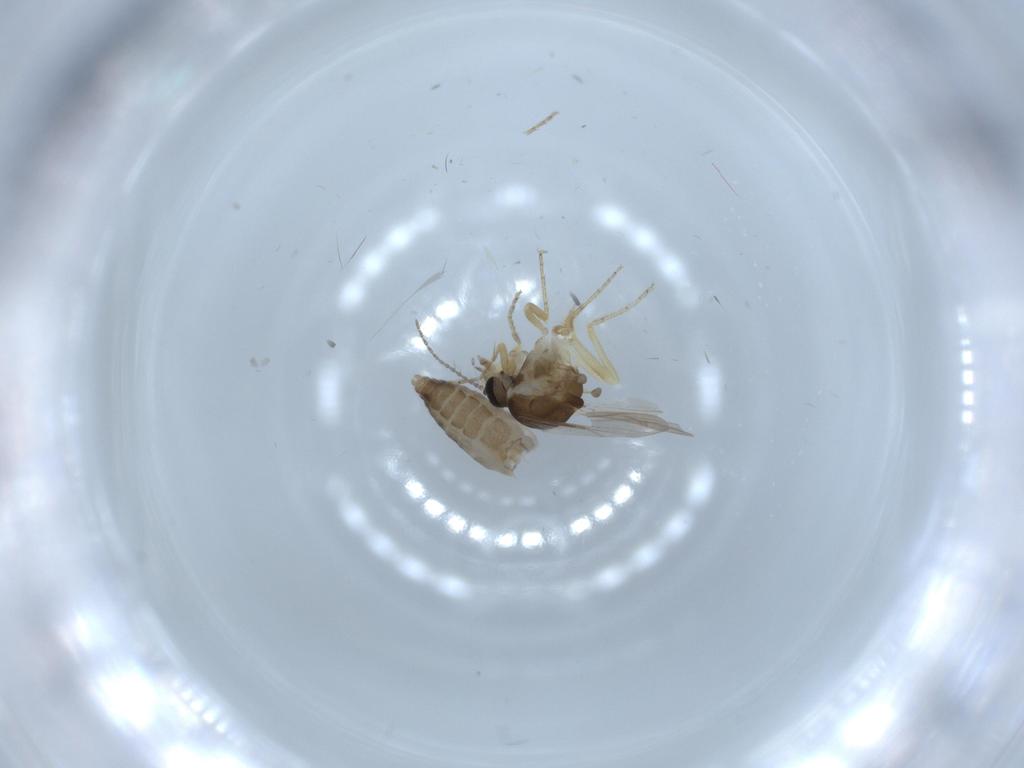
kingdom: Animalia
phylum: Arthropoda
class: Insecta
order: Diptera
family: Ceratopogonidae
